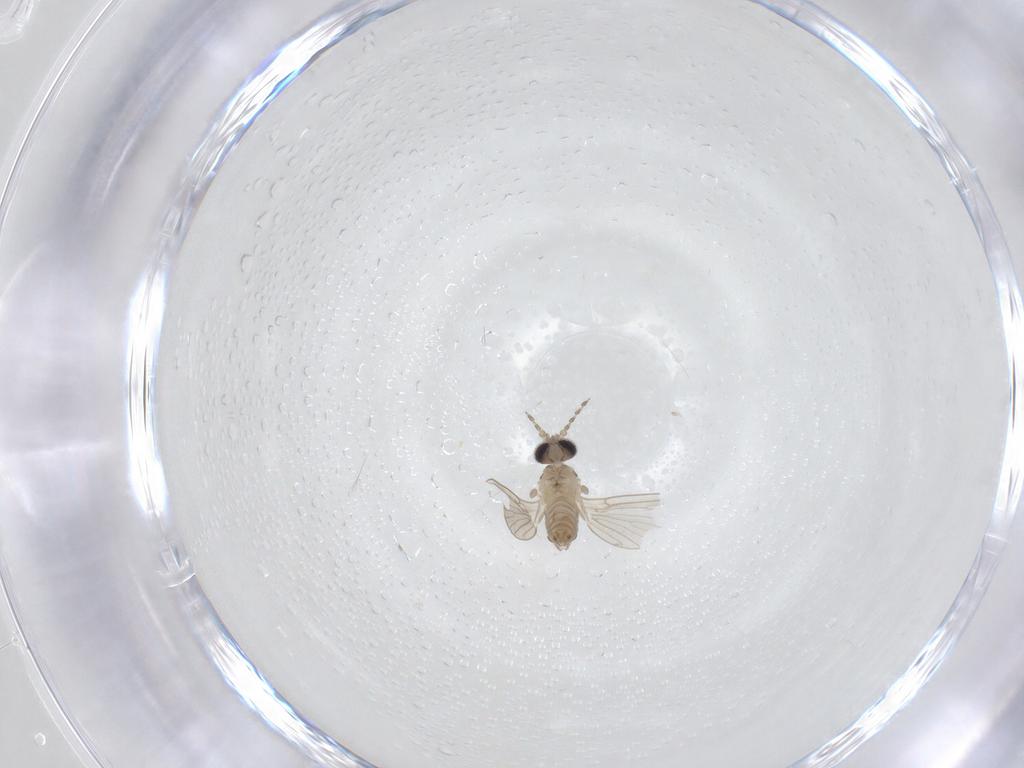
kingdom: Animalia
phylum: Arthropoda
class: Insecta
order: Diptera
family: Psychodidae
